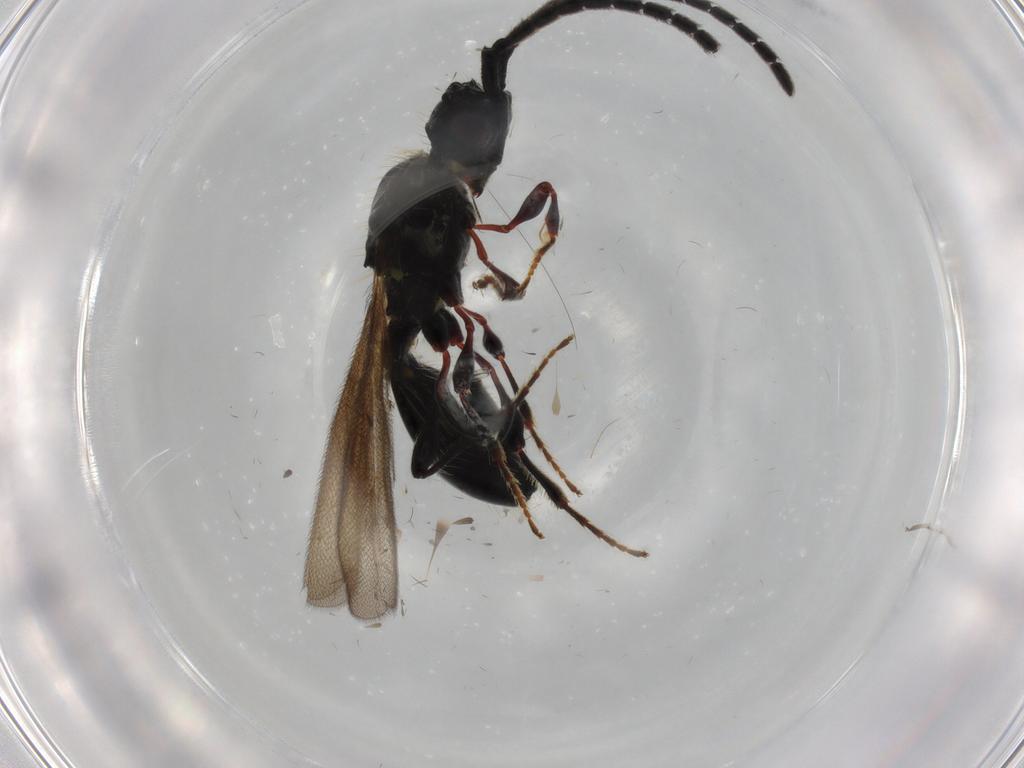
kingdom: Animalia
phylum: Arthropoda
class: Insecta
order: Hymenoptera
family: Diapriidae
